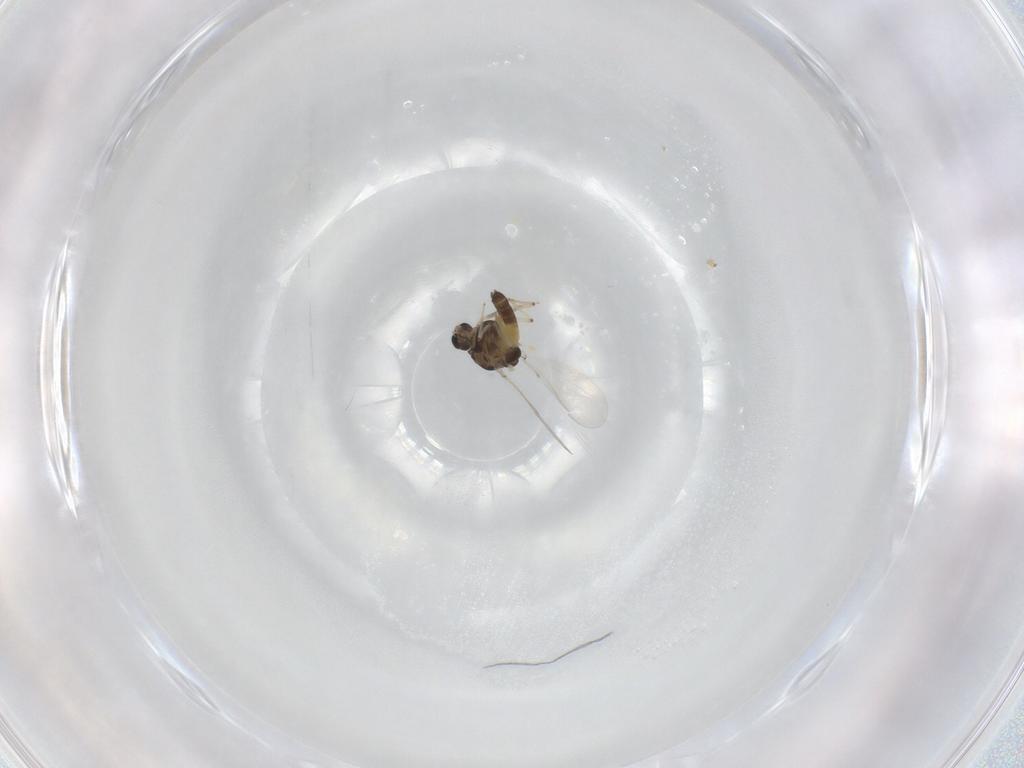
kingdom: Animalia
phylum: Arthropoda
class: Insecta
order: Diptera
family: Chironomidae
